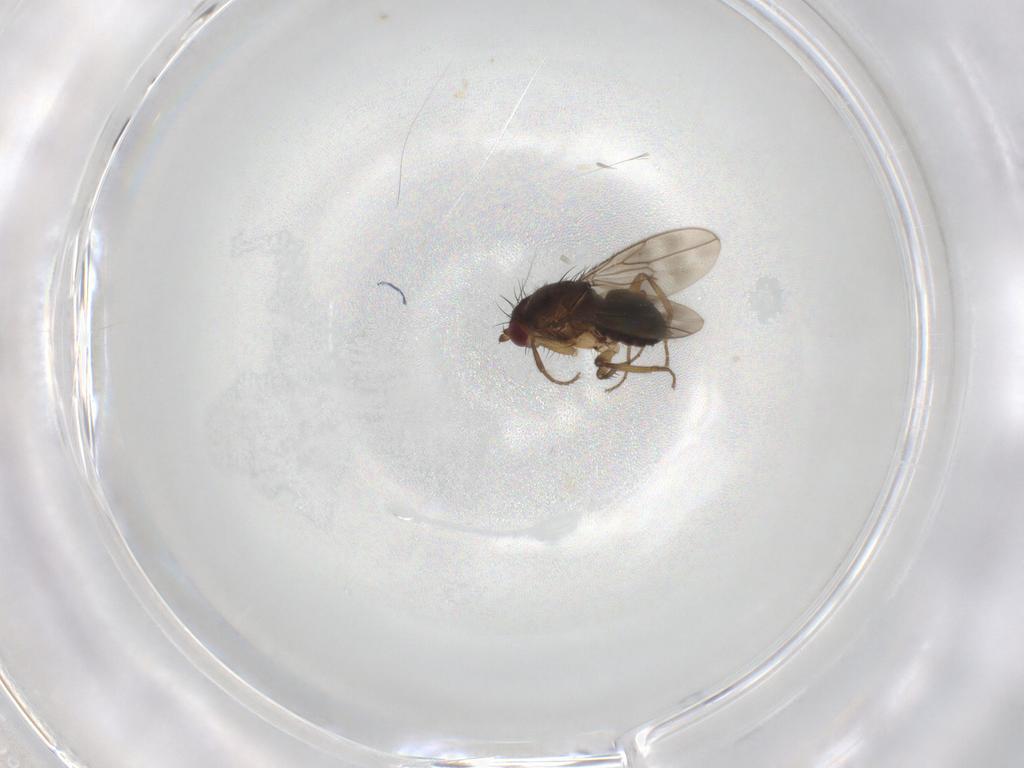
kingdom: Animalia
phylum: Arthropoda
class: Insecta
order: Diptera
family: Sphaeroceridae
